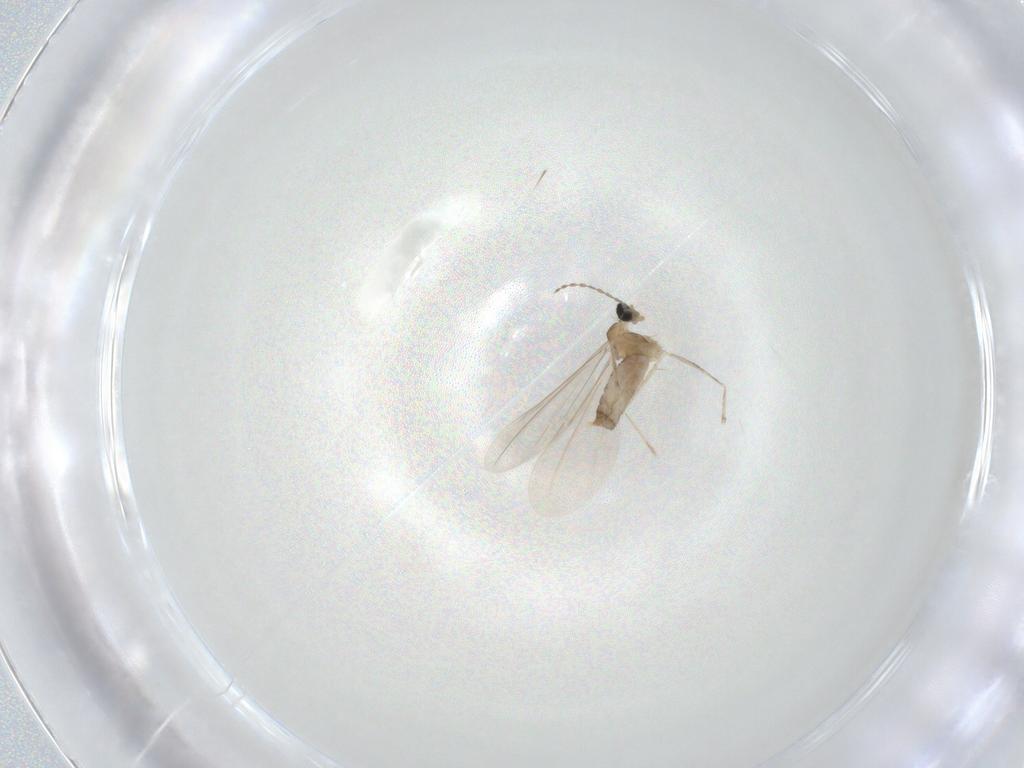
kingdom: Animalia
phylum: Arthropoda
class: Insecta
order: Diptera
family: Cecidomyiidae
